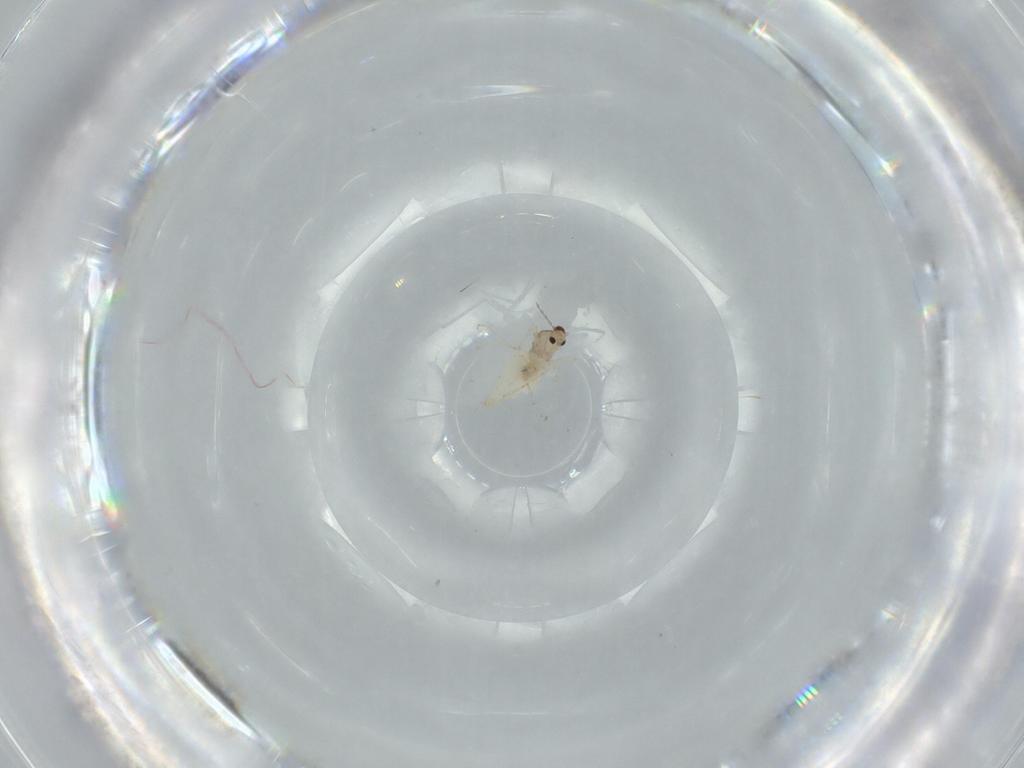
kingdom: Animalia
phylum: Arthropoda
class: Insecta
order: Diptera
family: Cecidomyiidae
